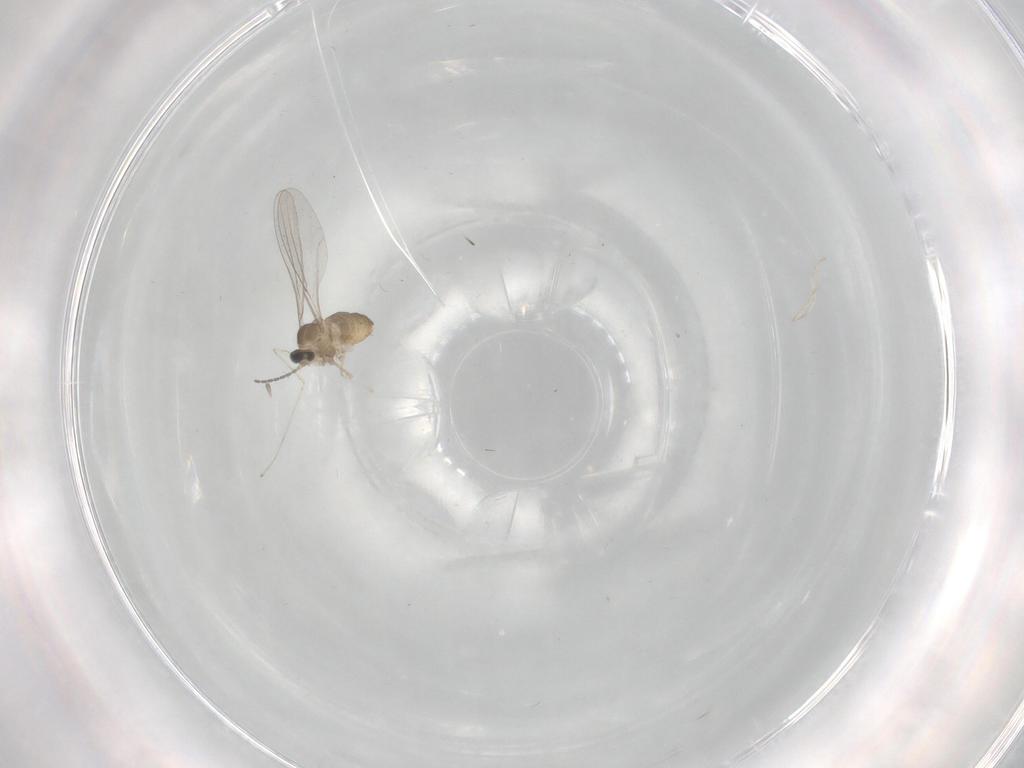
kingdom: Animalia
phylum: Arthropoda
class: Insecta
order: Diptera
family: Cecidomyiidae
